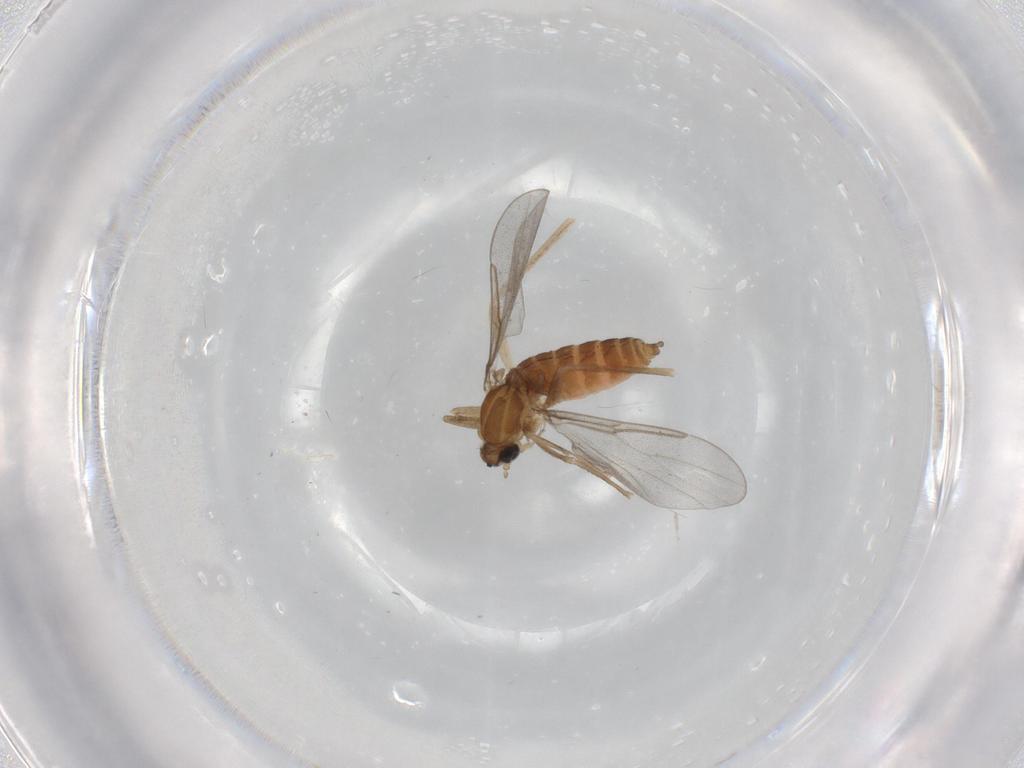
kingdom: Animalia
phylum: Arthropoda
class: Insecta
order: Diptera
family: Cecidomyiidae
